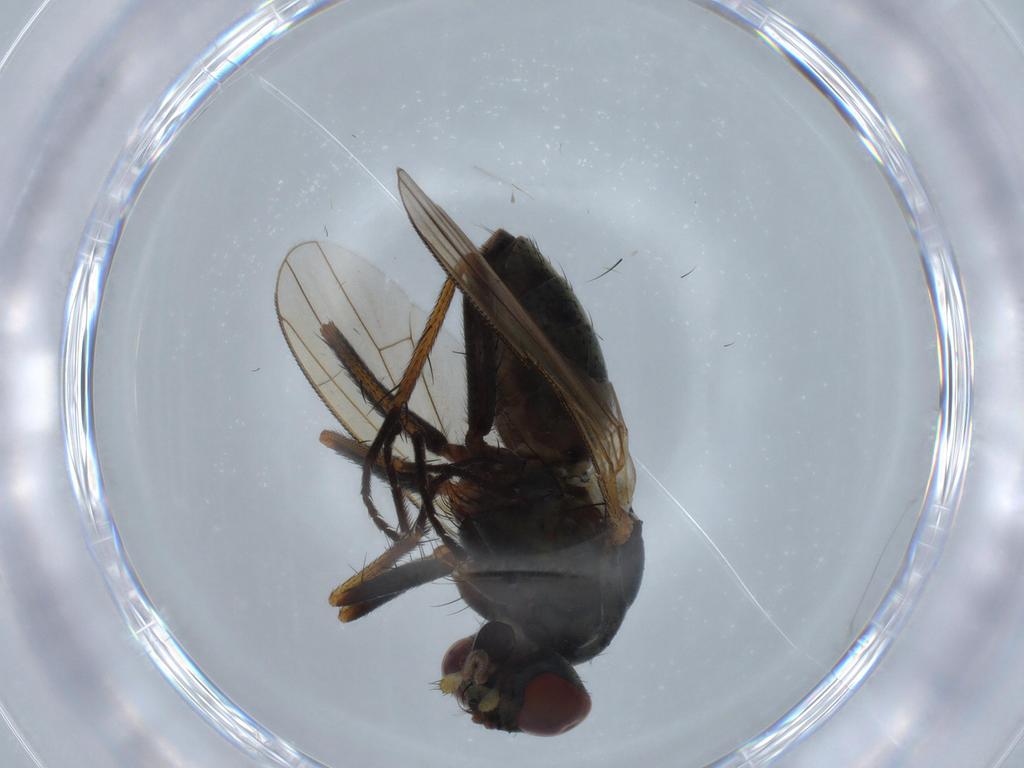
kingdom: Animalia
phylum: Arthropoda
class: Insecta
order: Diptera
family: Muscidae
